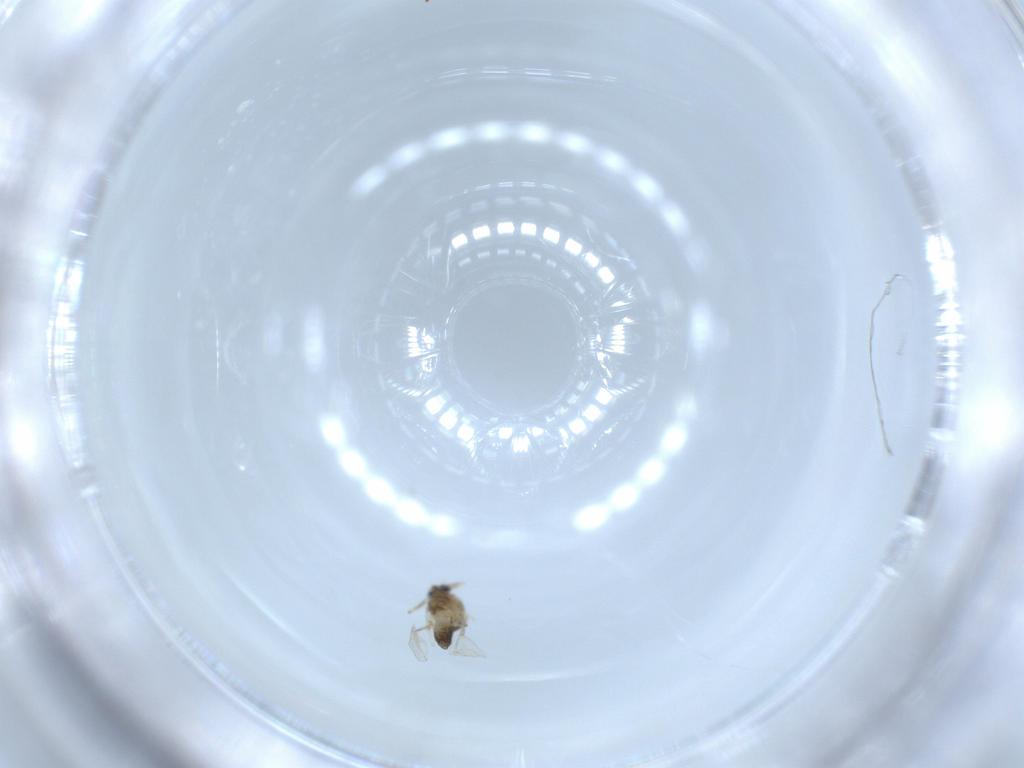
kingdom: Animalia
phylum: Arthropoda
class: Insecta
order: Diptera
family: Chironomidae
